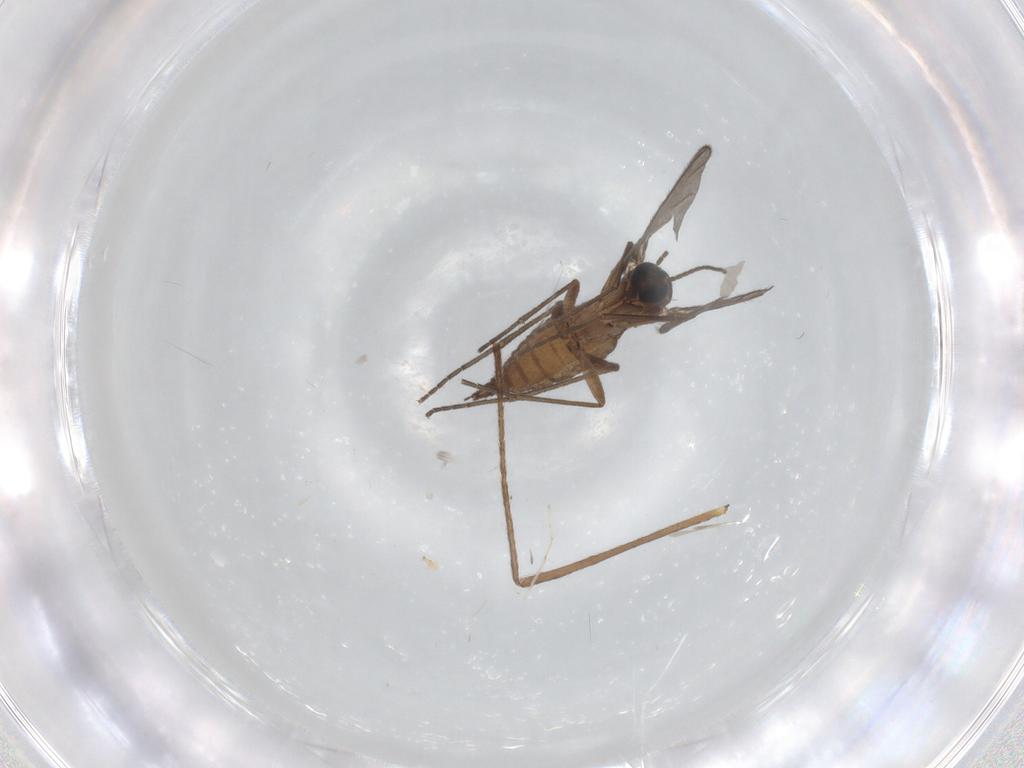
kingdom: Animalia
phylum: Arthropoda
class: Insecta
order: Diptera
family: Sciaridae
